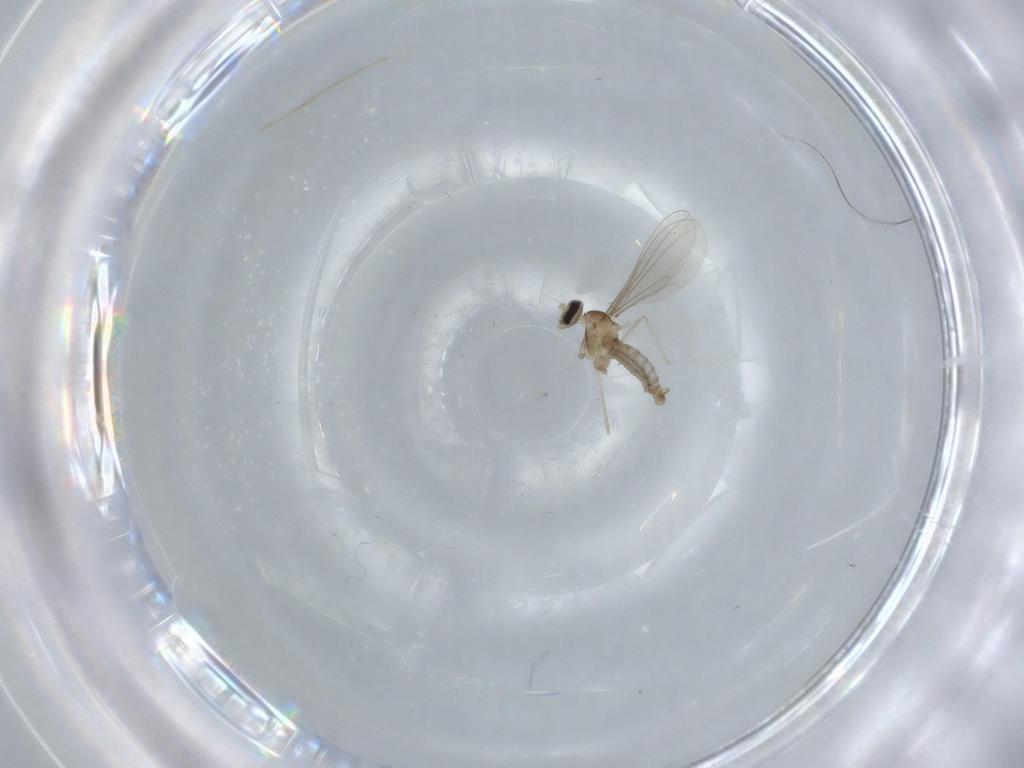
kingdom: Animalia
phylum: Arthropoda
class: Insecta
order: Diptera
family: Cecidomyiidae
